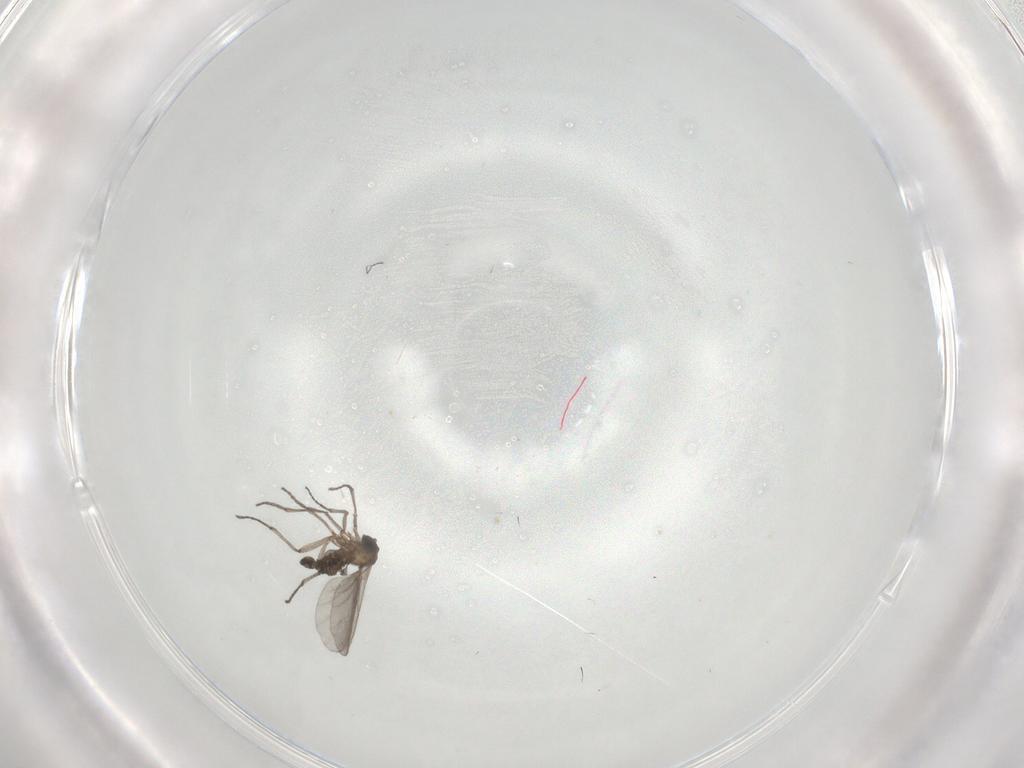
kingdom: Animalia
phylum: Arthropoda
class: Insecta
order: Diptera
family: Sciaridae
